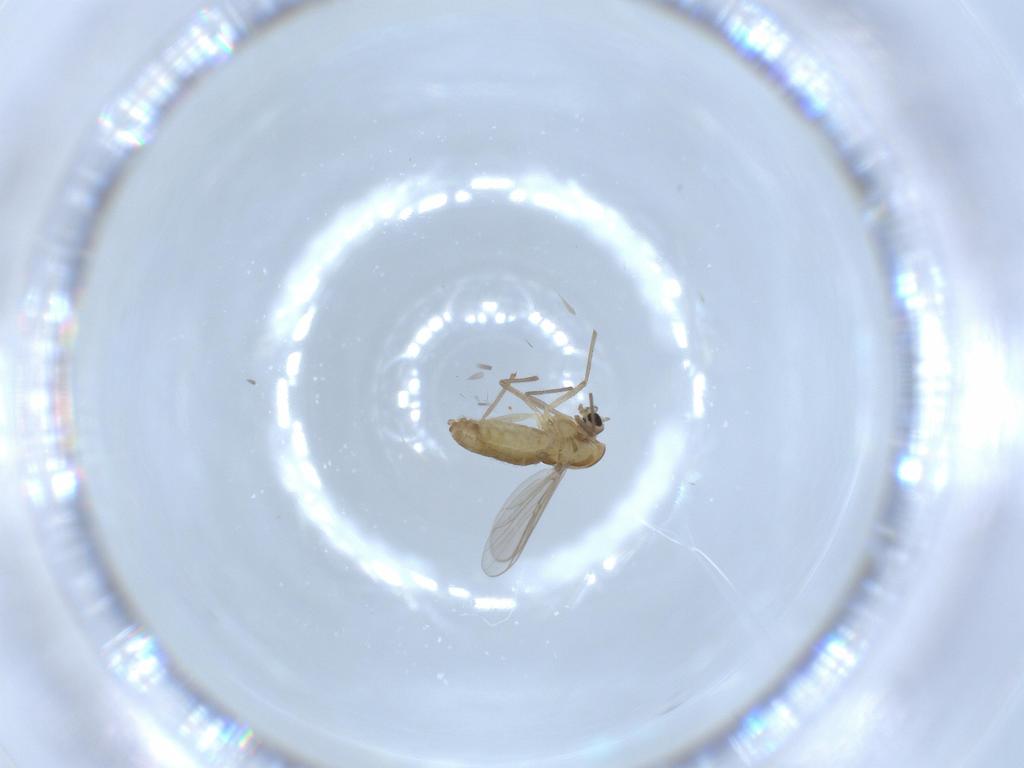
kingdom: Animalia
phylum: Arthropoda
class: Insecta
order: Diptera
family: Chironomidae
